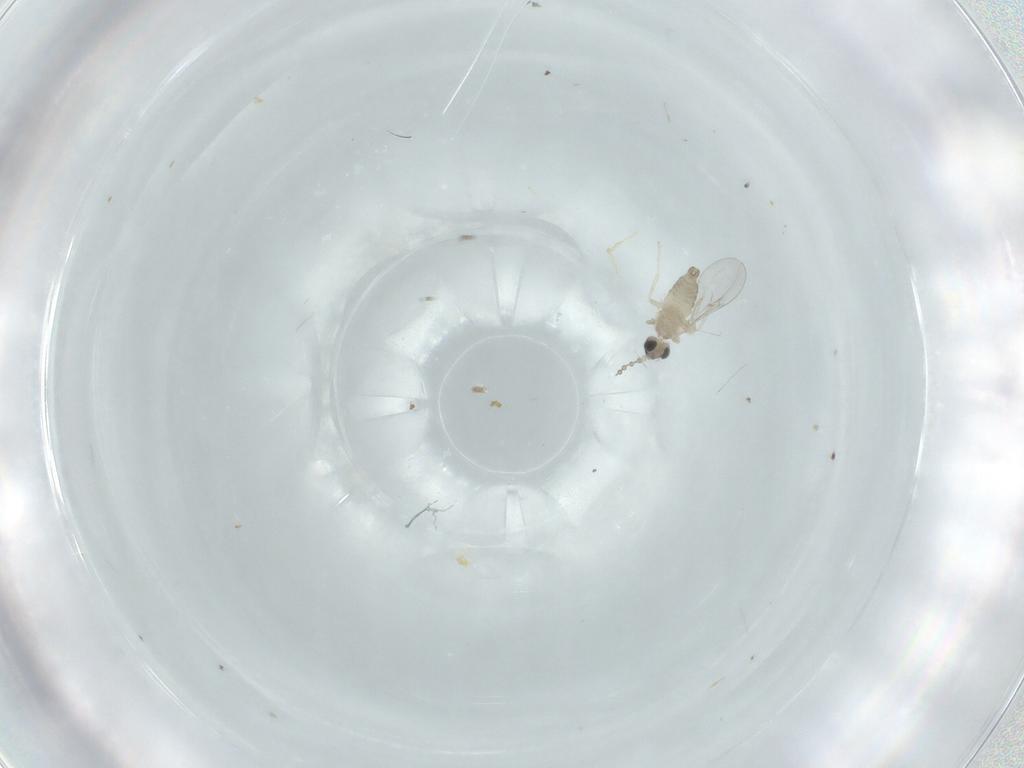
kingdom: Animalia
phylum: Arthropoda
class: Insecta
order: Diptera
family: Cecidomyiidae
